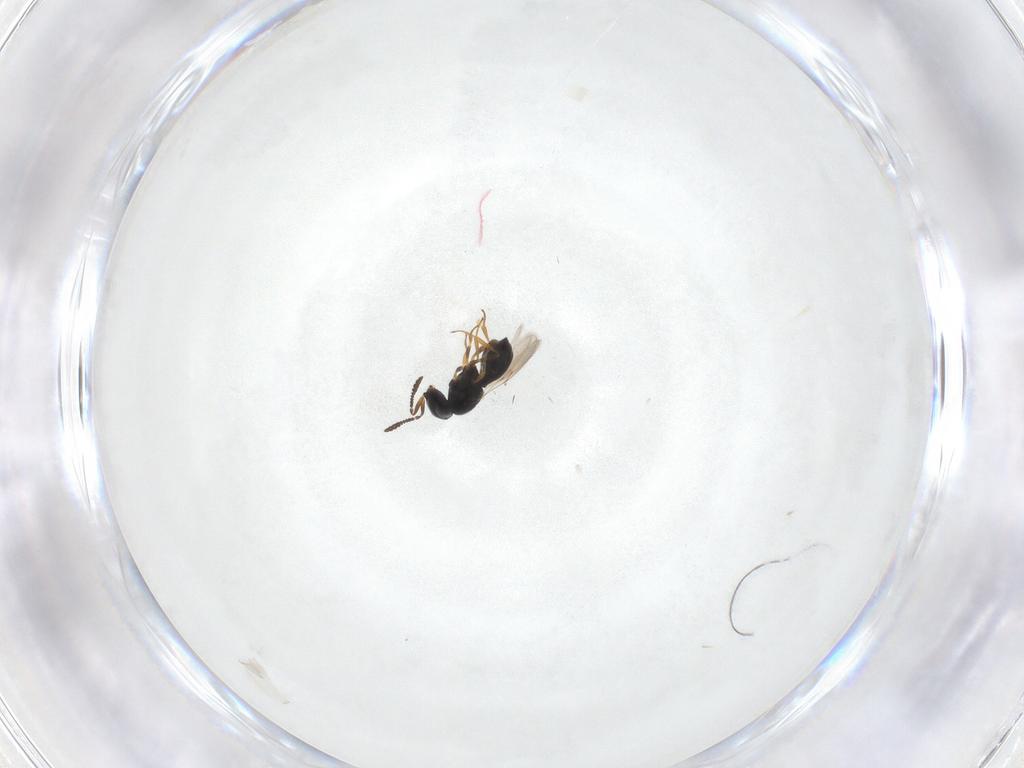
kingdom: Animalia
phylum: Arthropoda
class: Insecta
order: Hymenoptera
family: Scelionidae
